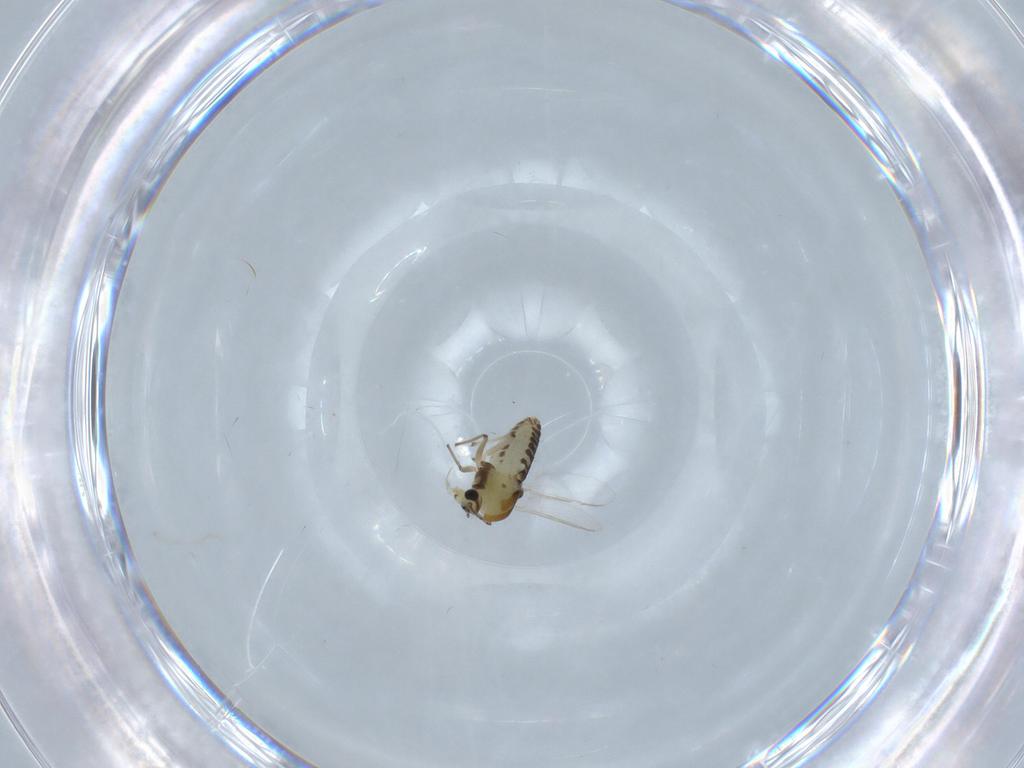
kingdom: Animalia
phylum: Arthropoda
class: Insecta
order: Diptera
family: Chironomidae
